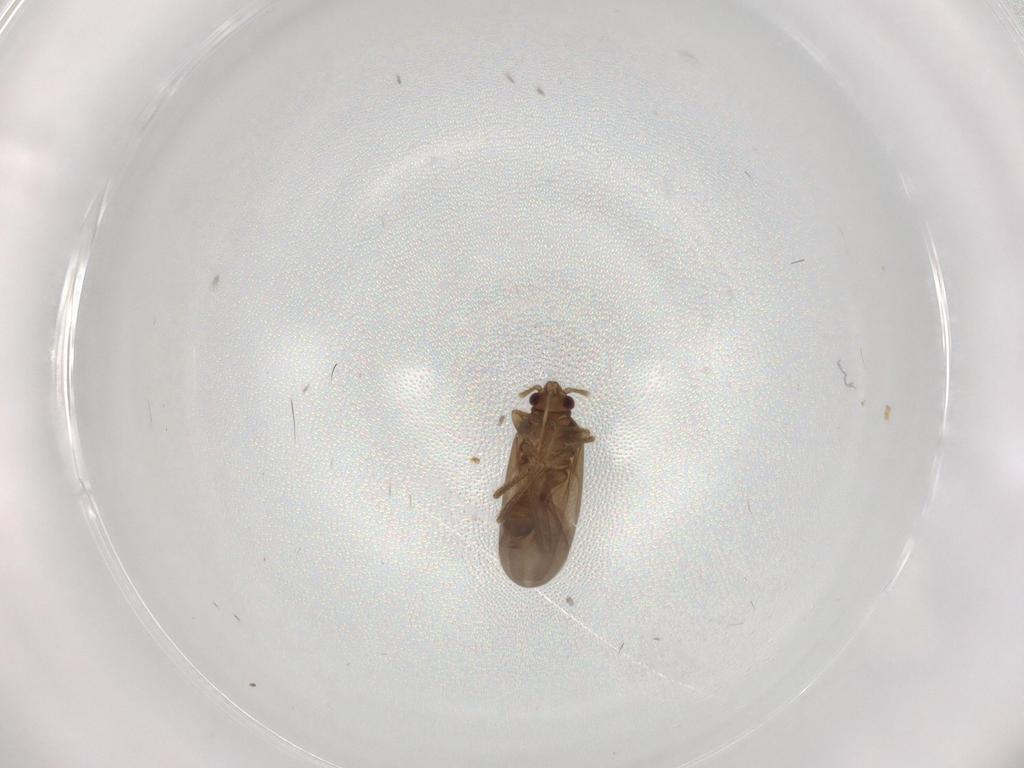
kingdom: Animalia
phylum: Arthropoda
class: Insecta
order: Hemiptera
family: Ceratocombidae
